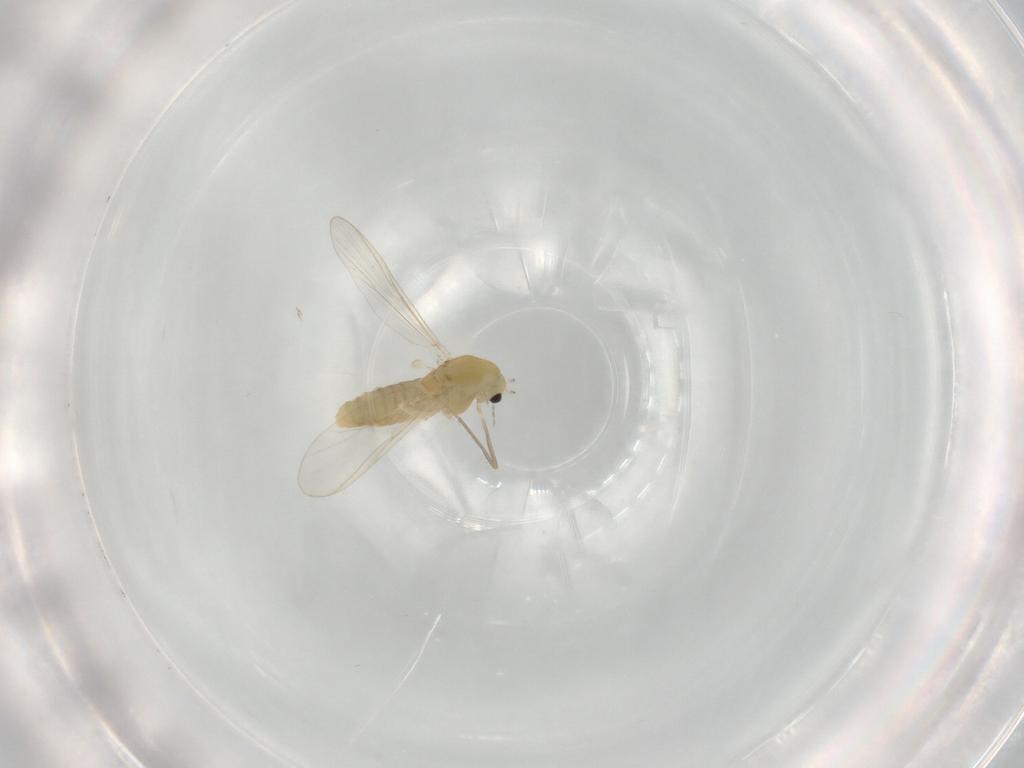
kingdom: Animalia
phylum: Arthropoda
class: Insecta
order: Diptera
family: Chironomidae
